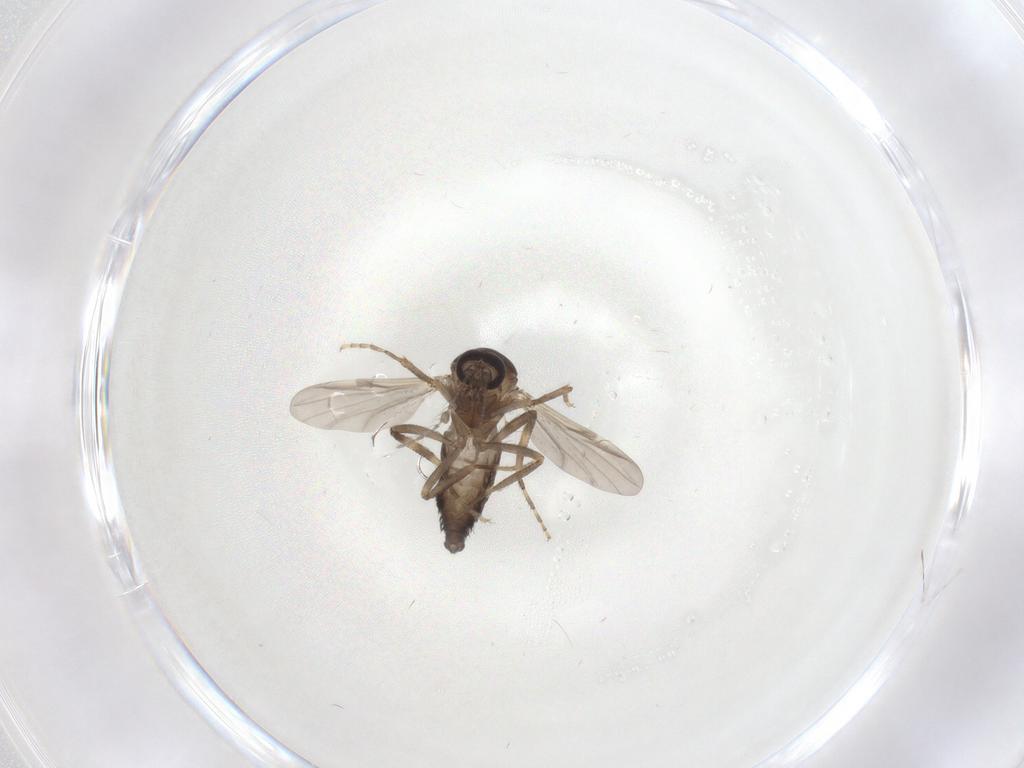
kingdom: Animalia
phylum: Arthropoda
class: Insecta
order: Diptera
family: Ceratopogonidae
